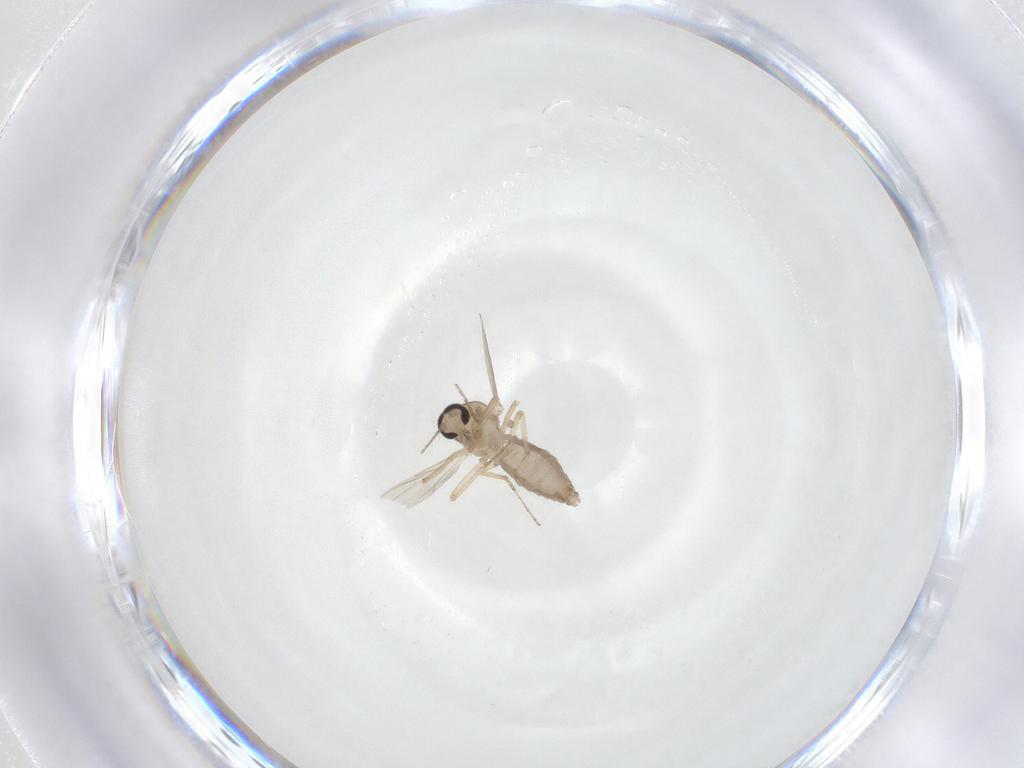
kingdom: Animalia
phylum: Arthropoda
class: Insecta
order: Diptera
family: Ceratopogonidae
